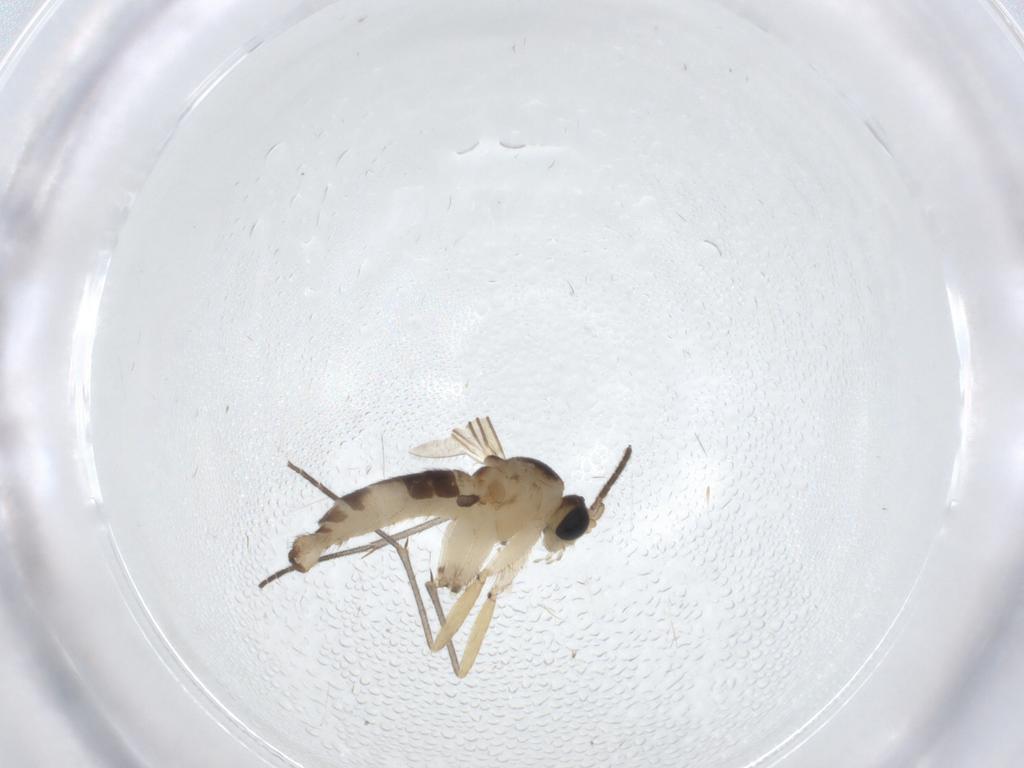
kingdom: Animalia
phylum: Arthropoda
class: Insecta
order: Diptera
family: Sciaridae
